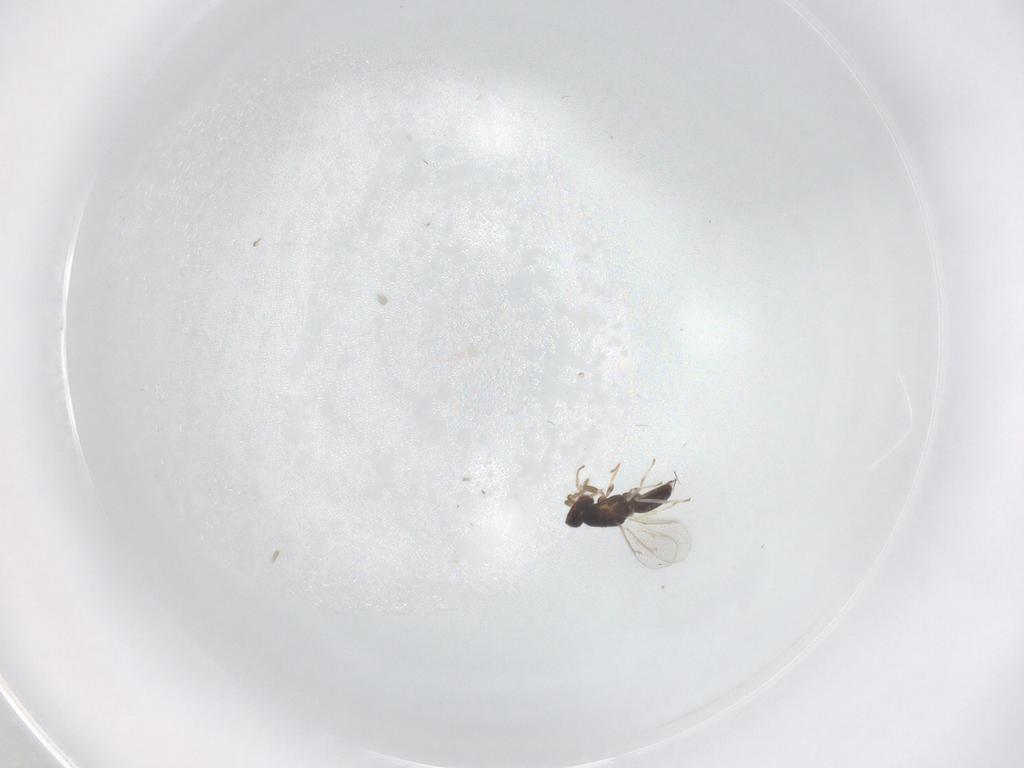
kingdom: Animalia
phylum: Arthropoda
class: Insecta
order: Hymenoptera
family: Eulophidae
